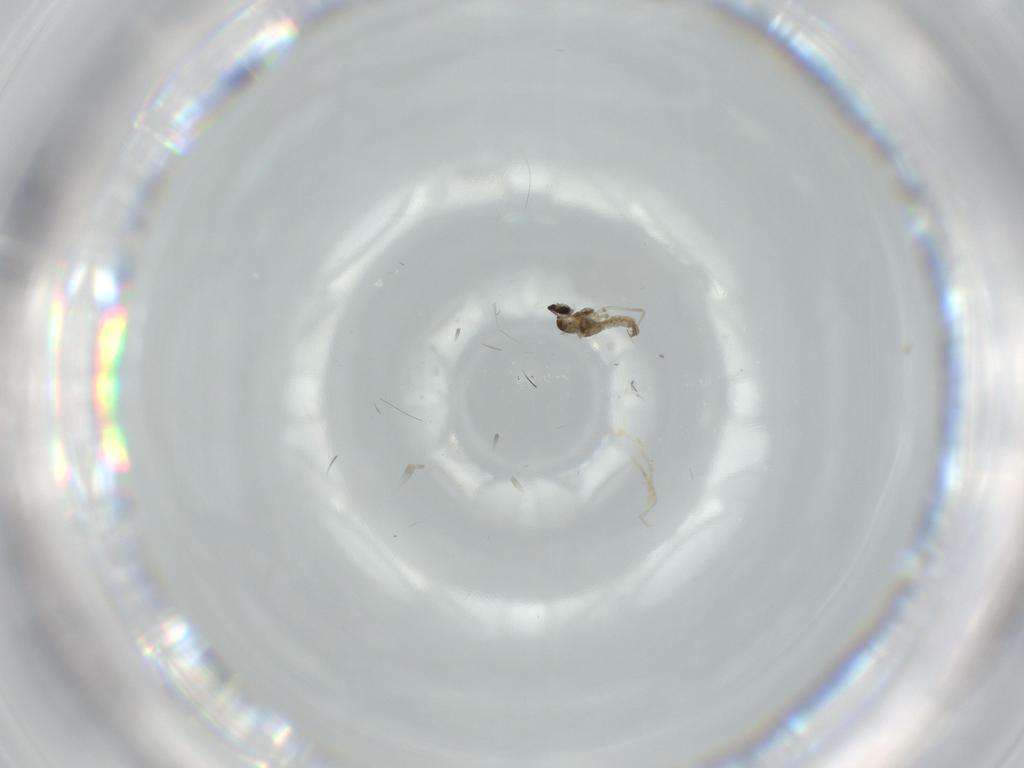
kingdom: Animalia
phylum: Arthropoda
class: Insecta
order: Diptera
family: Cecidomyiidae
